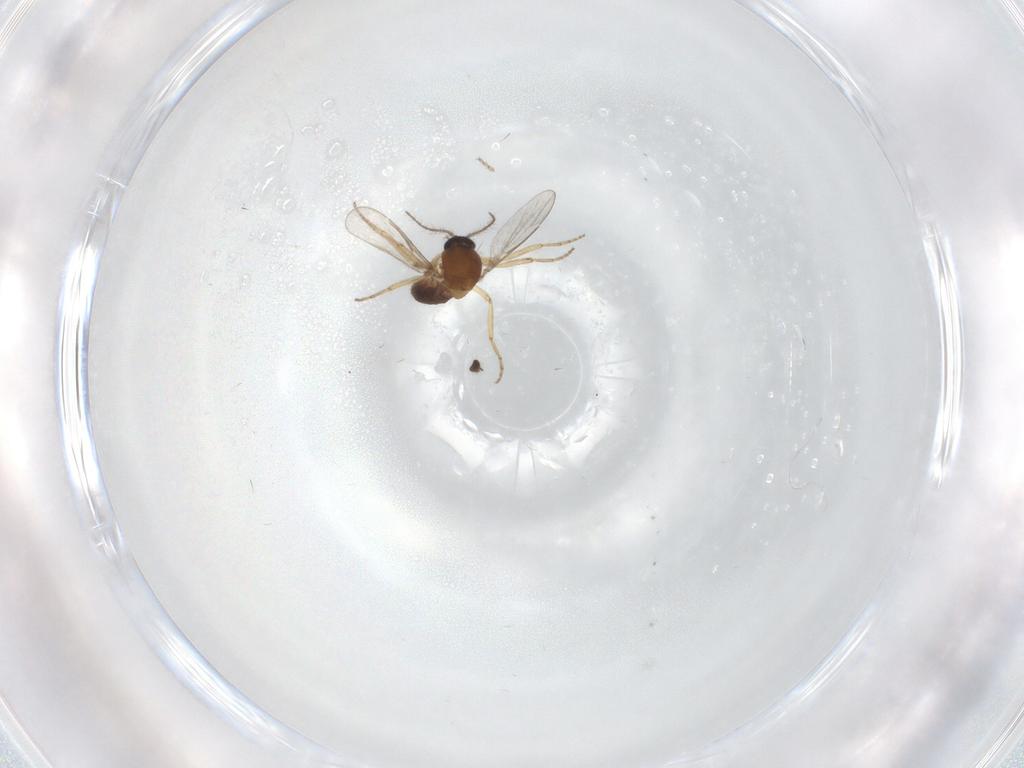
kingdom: Animalia
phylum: Arthropoda
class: Insecta
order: Diptera
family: Ceratopogonidae
